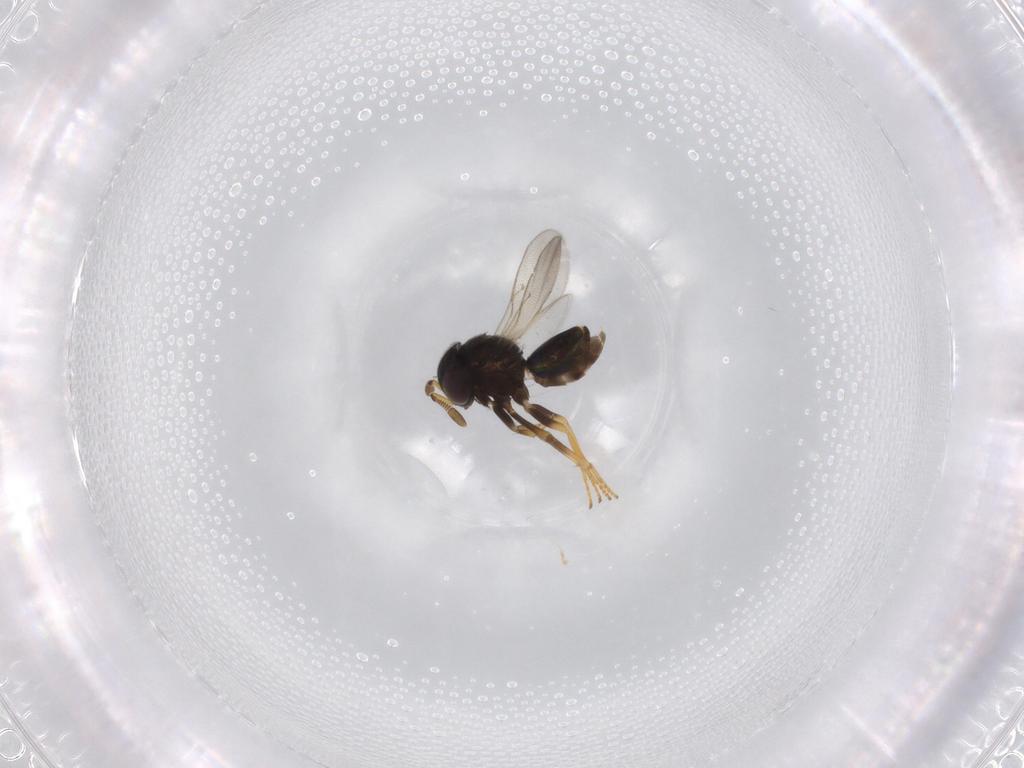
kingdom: Animalia
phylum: Arthropoda
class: Insecta
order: Hymenoptera
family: Encyrtidae
